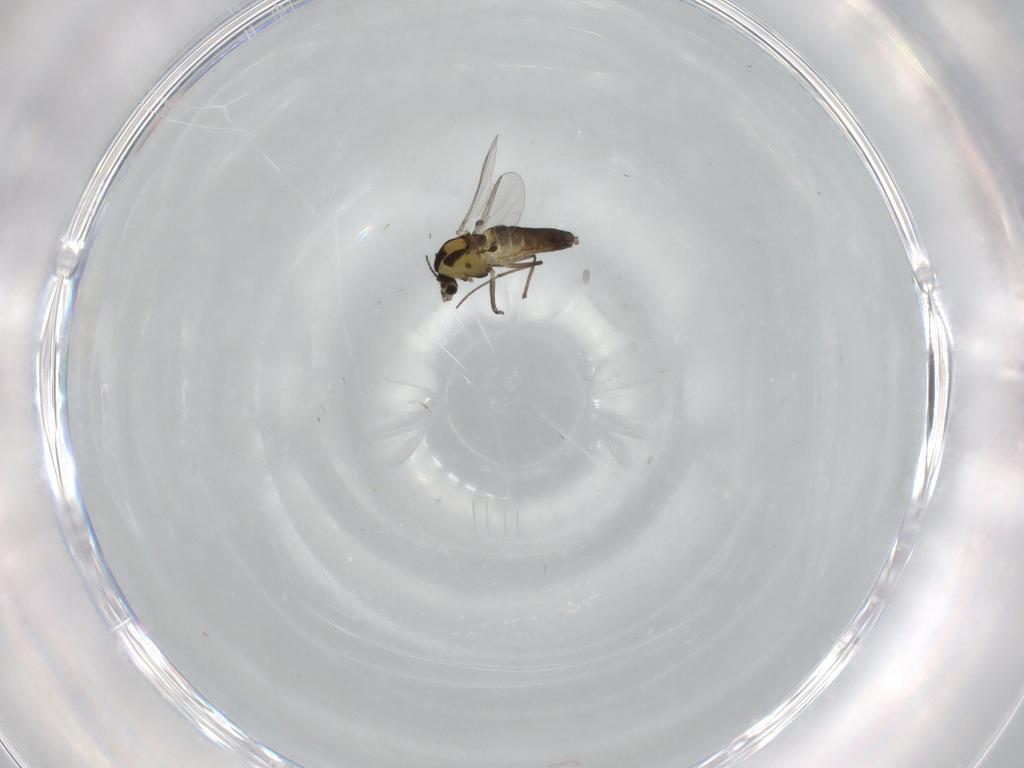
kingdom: Animalia
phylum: Arthropoda
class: Insecta
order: Diptera
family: Chironomidae
